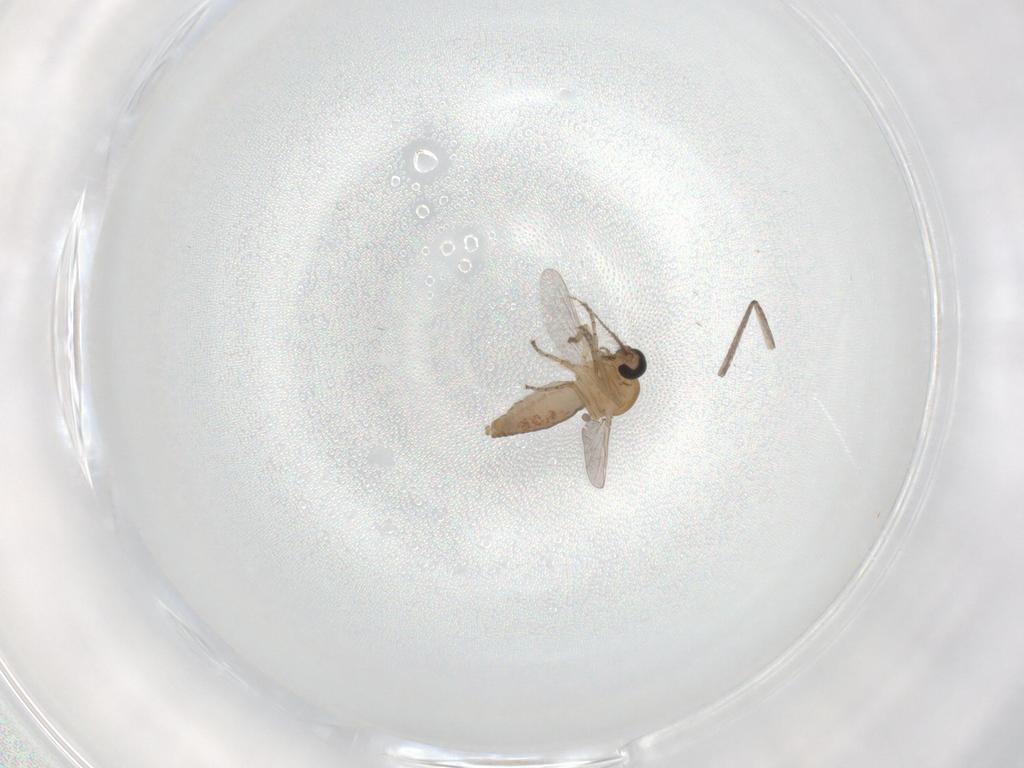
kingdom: Animalia
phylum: Arthropoda
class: Insecta
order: Diptera
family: Ceratopogonidae
